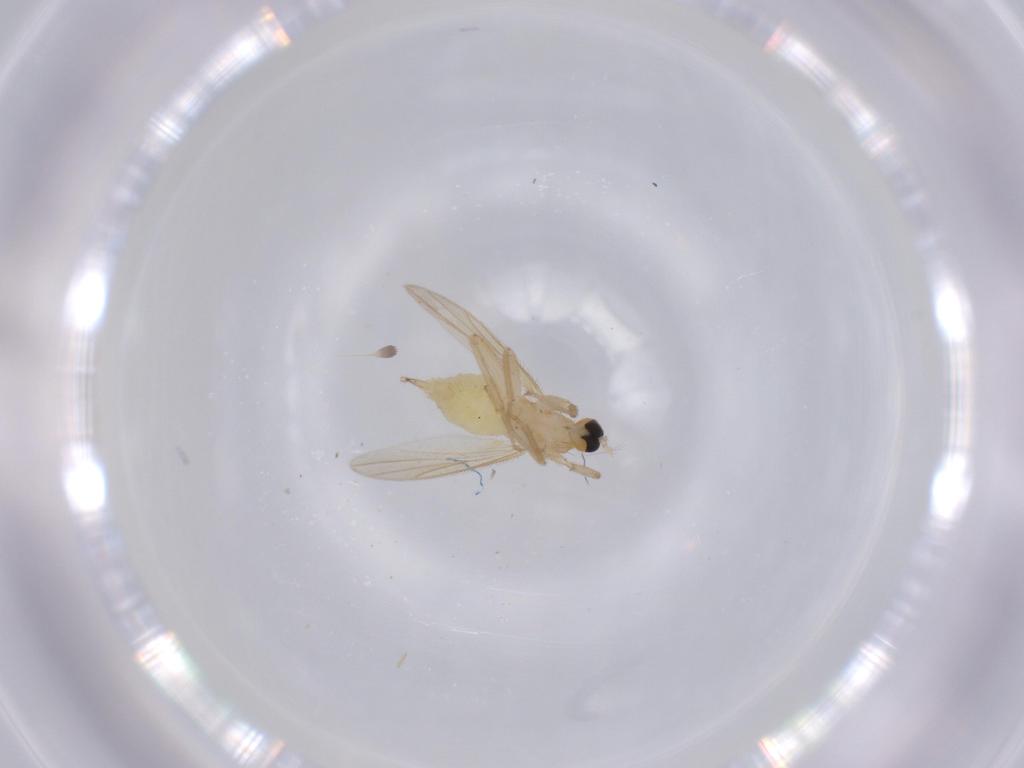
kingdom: Animalia
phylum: Arthropoda
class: Insecta
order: Diptera
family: Sciaridae
